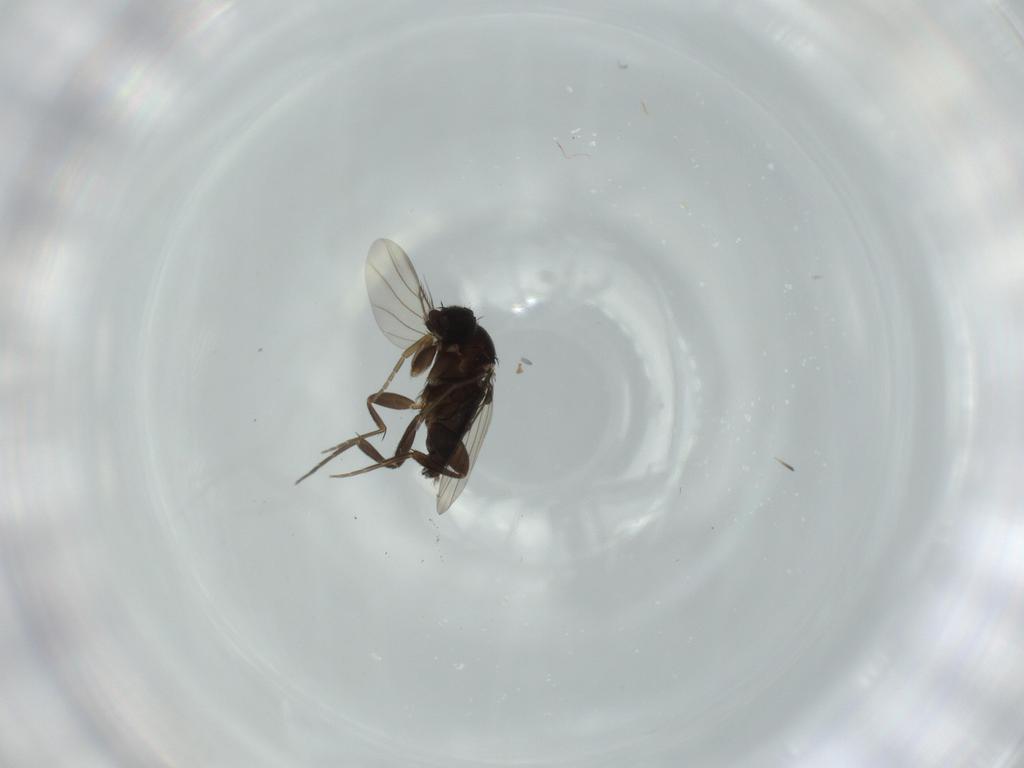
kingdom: Animalia
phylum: Arthropoda
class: Insecta
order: Diptera
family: Phoridae
